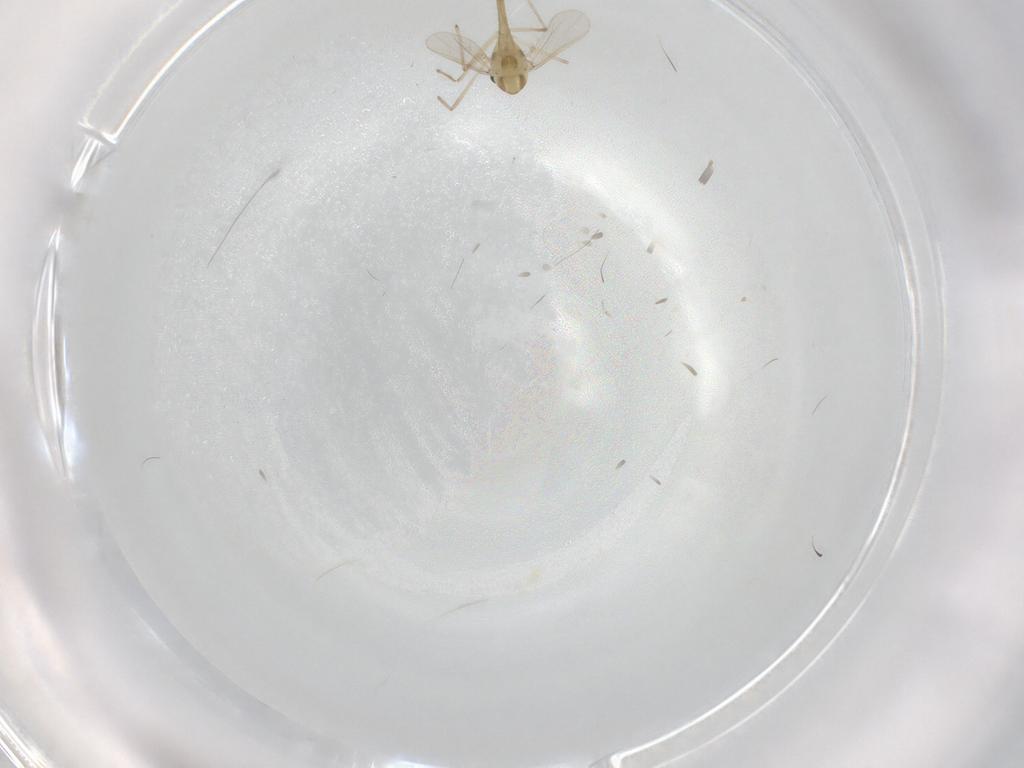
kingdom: Animalia
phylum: Arthropoda
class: Insecta
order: Diptera
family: Chironomidae
